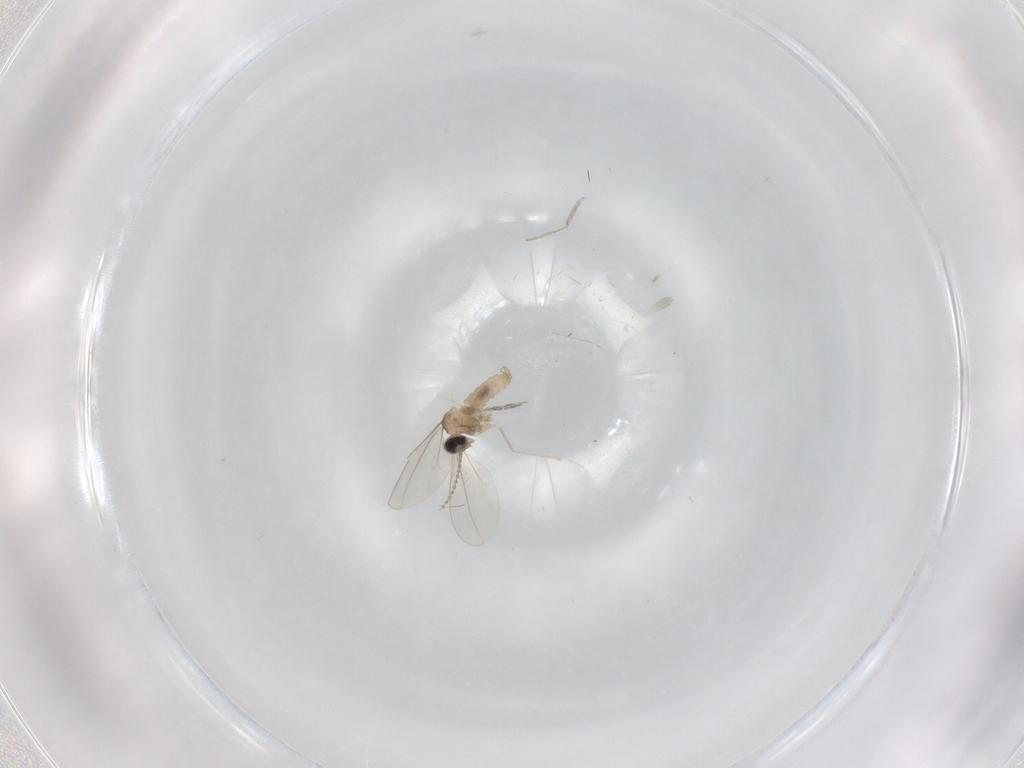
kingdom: Animalia
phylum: Arthropoda
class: Insecta
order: Diptera
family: Cecidomyiidae
